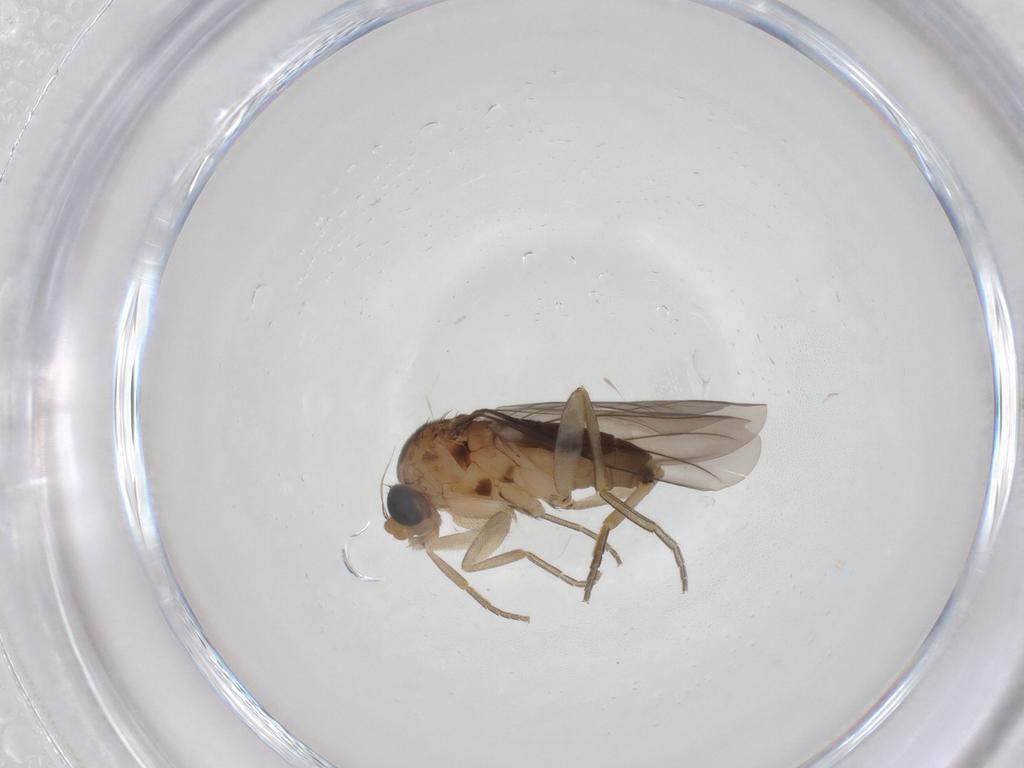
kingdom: Animalia
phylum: Arthropoda
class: Insecta
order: Diptera
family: Phoridae
